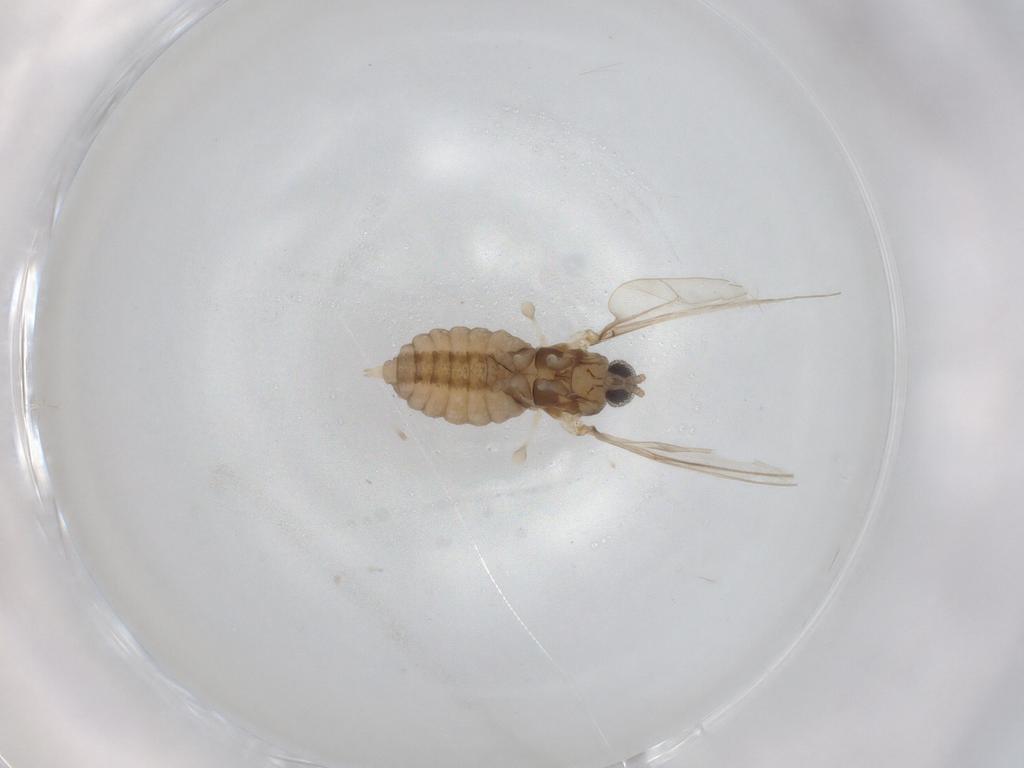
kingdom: Animalia
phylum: Arthropoda
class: Insecta
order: Diptera
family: Cecidomyiidae
